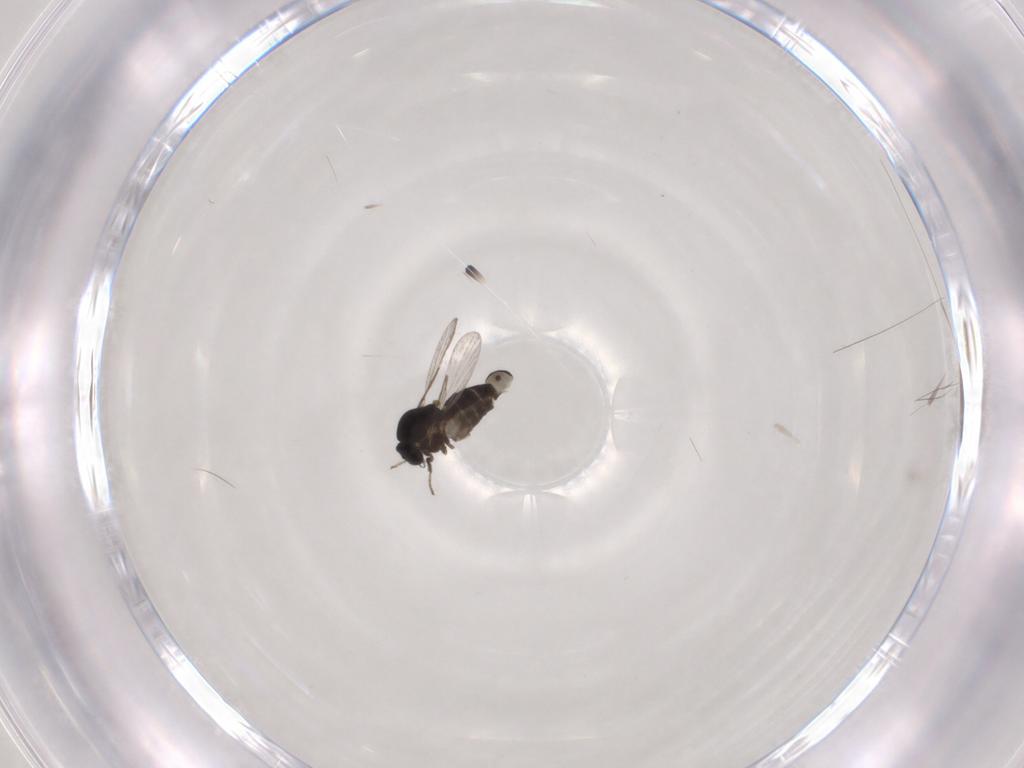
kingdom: Animalia
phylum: Arthropoda
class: Insecta
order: Diptera
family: Ceratopogonidae
